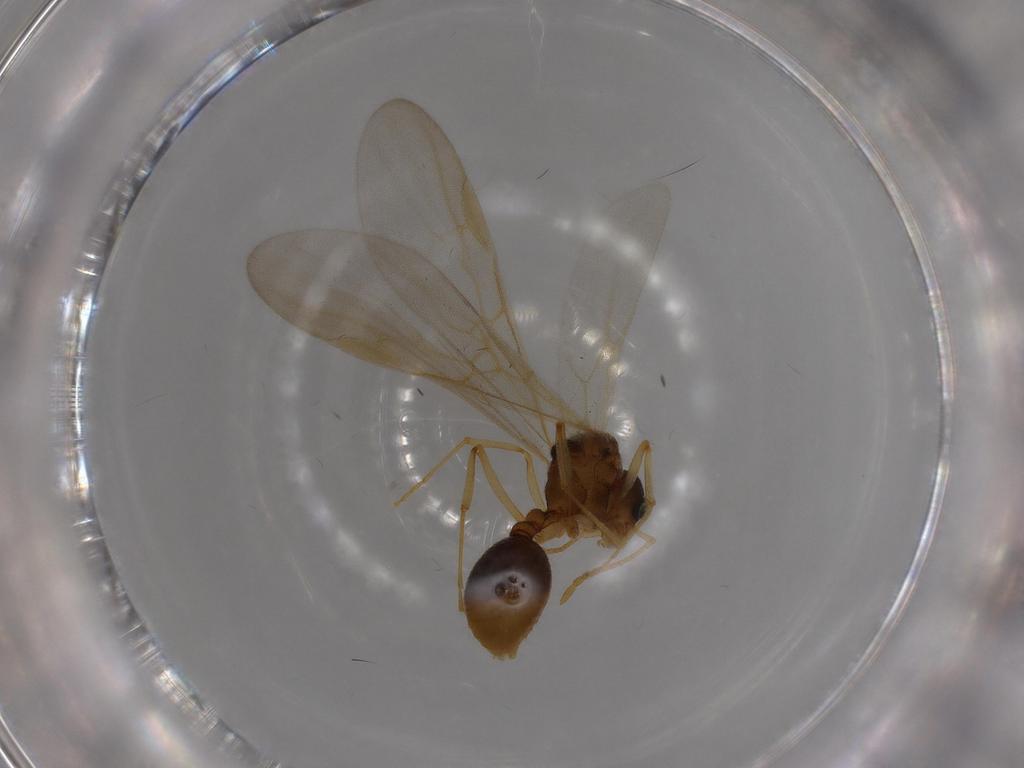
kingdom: Animalia
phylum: Arthropoda
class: Insecta
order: Hymenoptera
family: Formicidae
